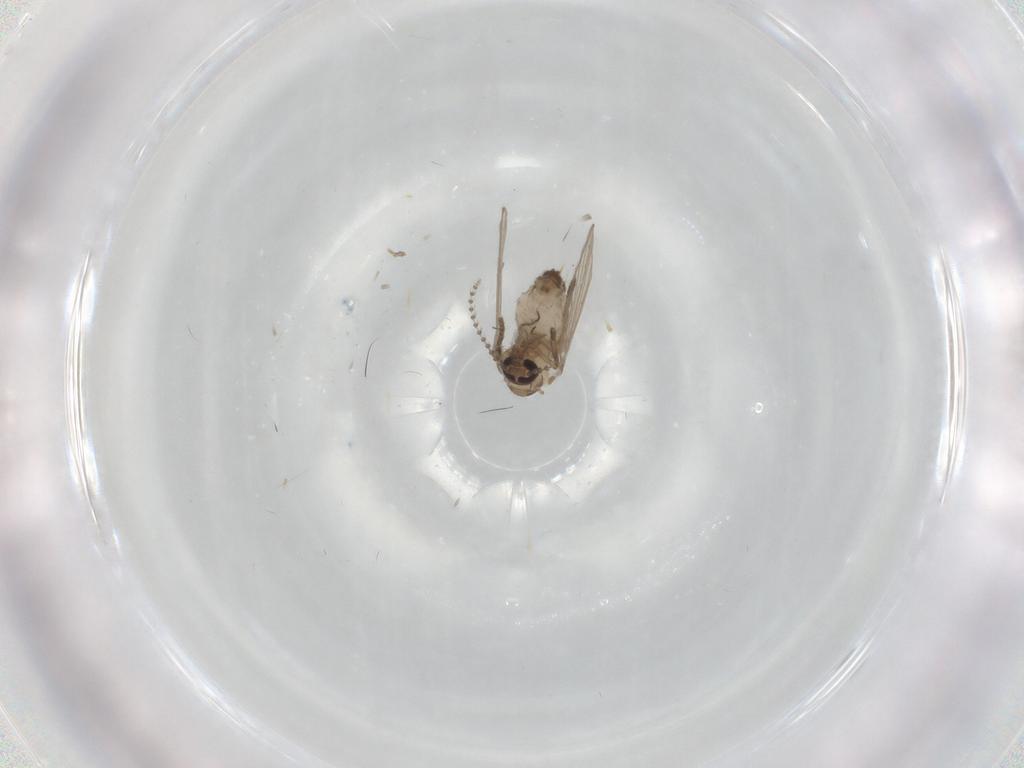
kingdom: Animalia
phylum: Arthropoda
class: Insecta
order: Diptera
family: Psychodidae
